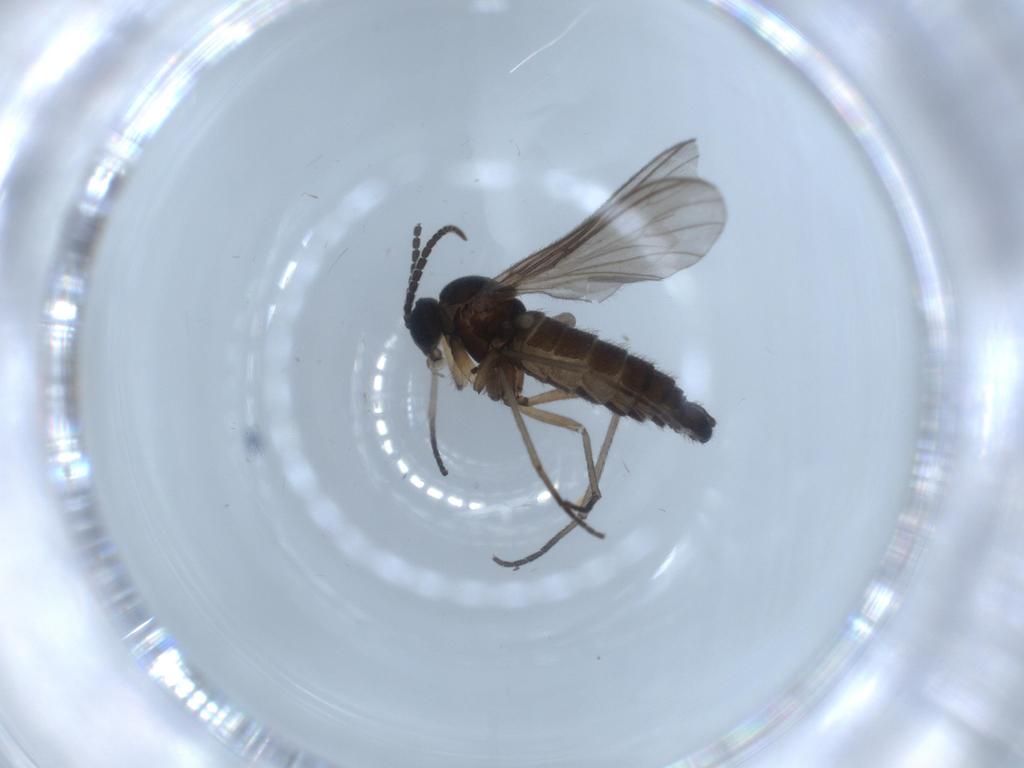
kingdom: Animalia
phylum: Arthropoda
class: Insecta
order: Diptera
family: Sciaridae
